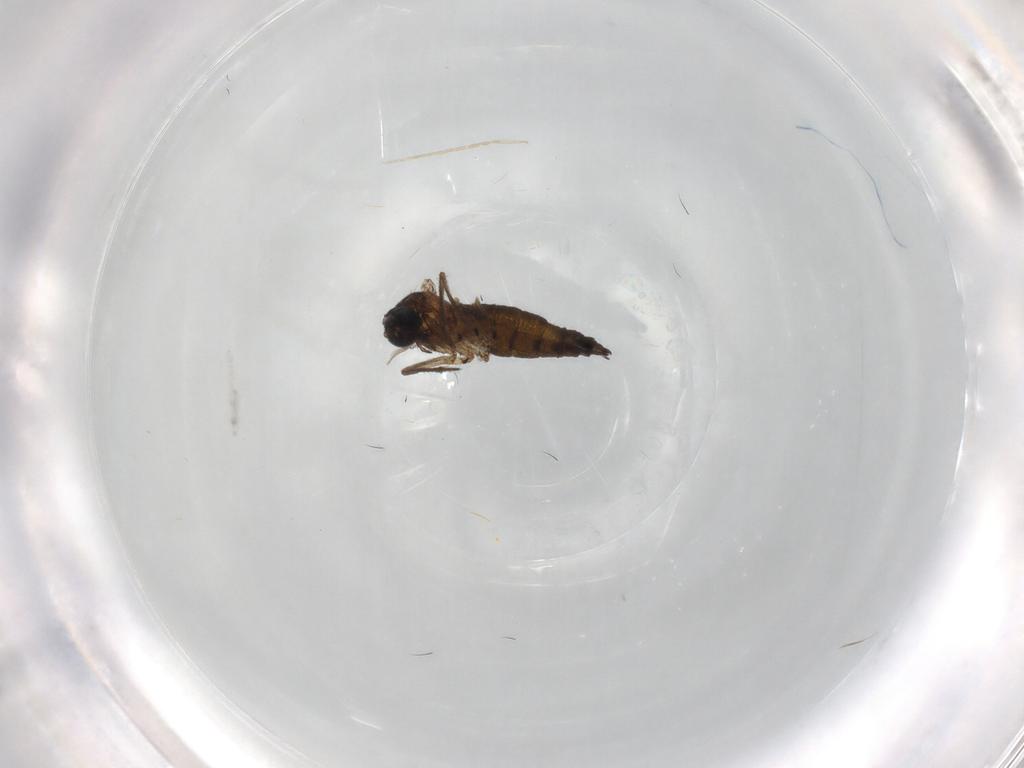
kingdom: Animalia
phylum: Arthropoda
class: Insecta
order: Diptera
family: Sciaridae
